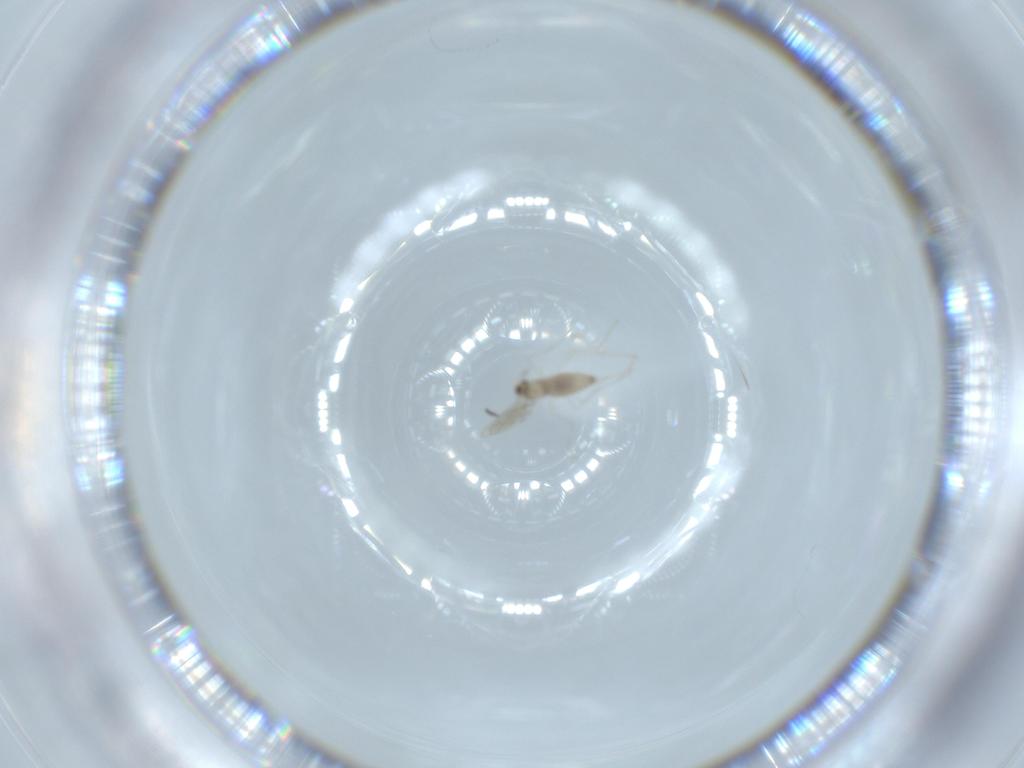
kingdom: Animalia
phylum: Arthropoda
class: Insecta
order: Diptera
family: Cecidomyiidae
